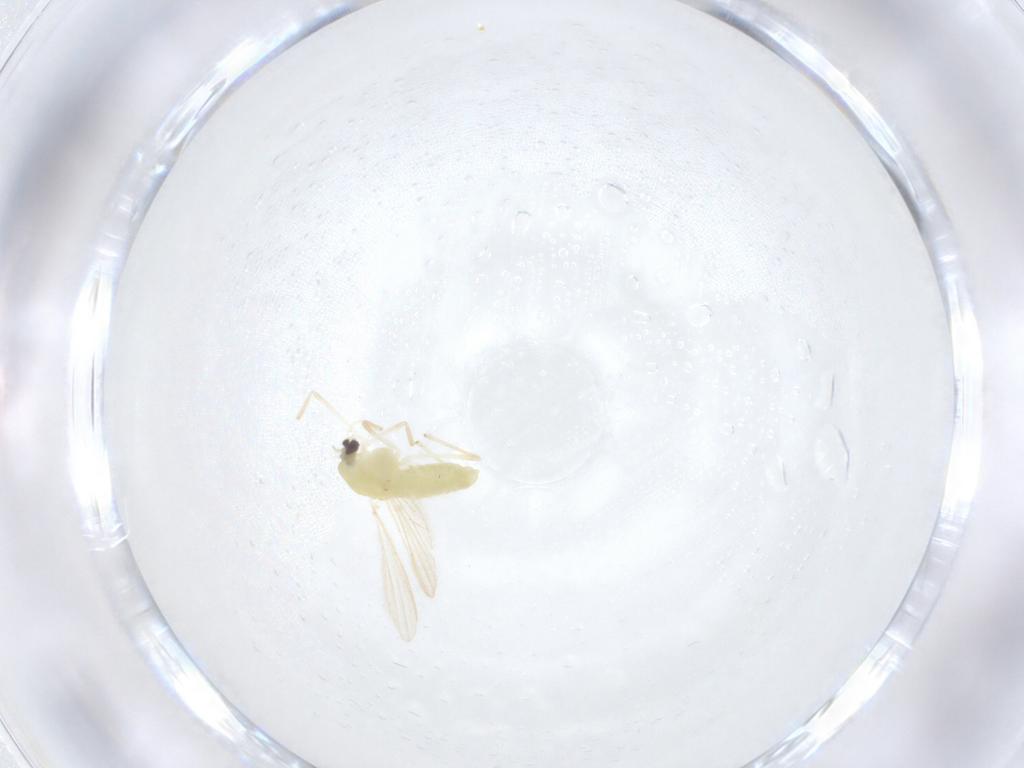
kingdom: Animalia
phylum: Arthropoda
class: Insecta
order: Diptera
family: Chironomidae
